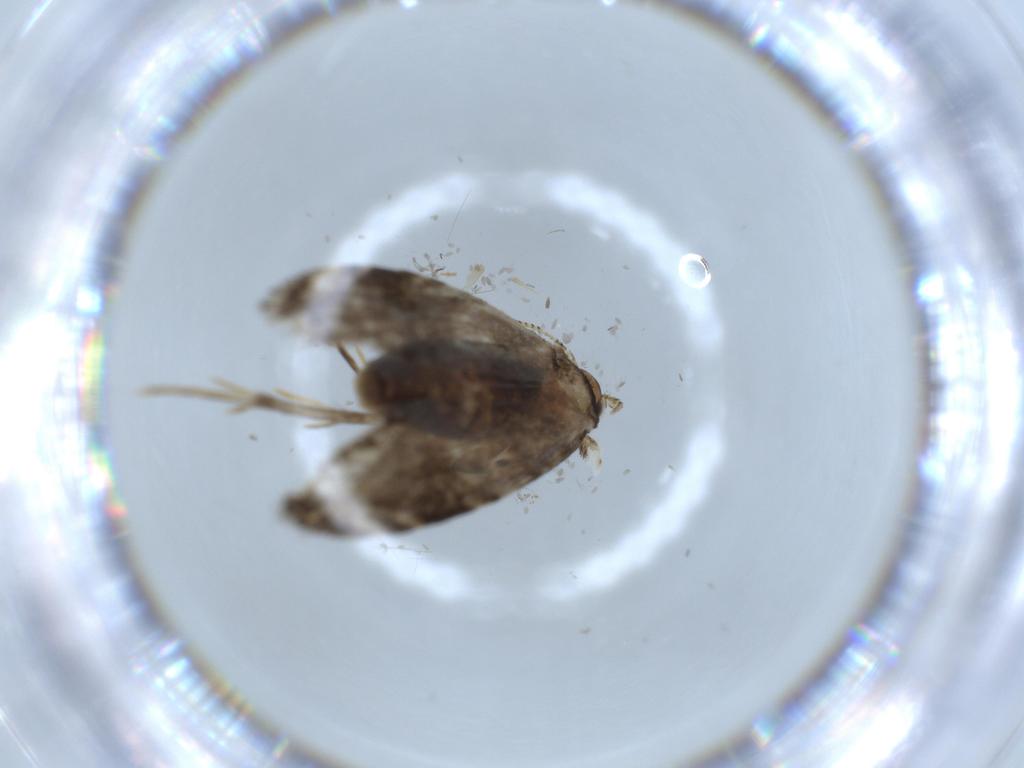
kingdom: Animalia
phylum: Arthropoda
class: Insecta
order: Lepidoptera
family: Tineidae
